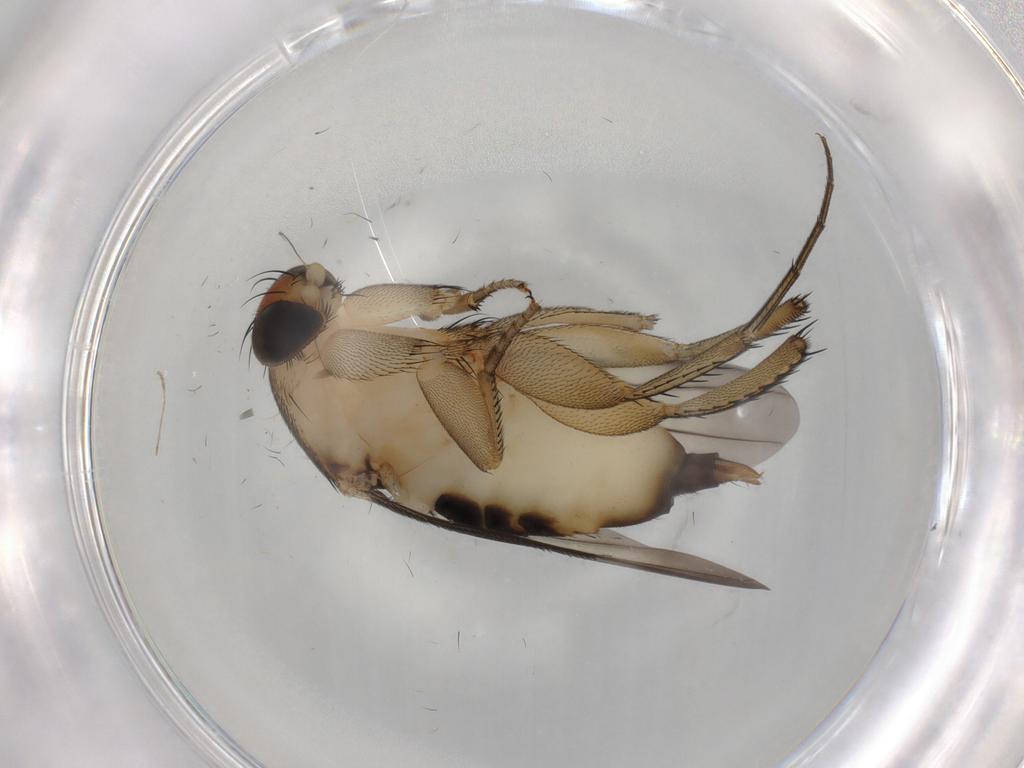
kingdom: Animalia
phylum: Arthropoda
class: Insecta
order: Diptera
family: Phoridae
